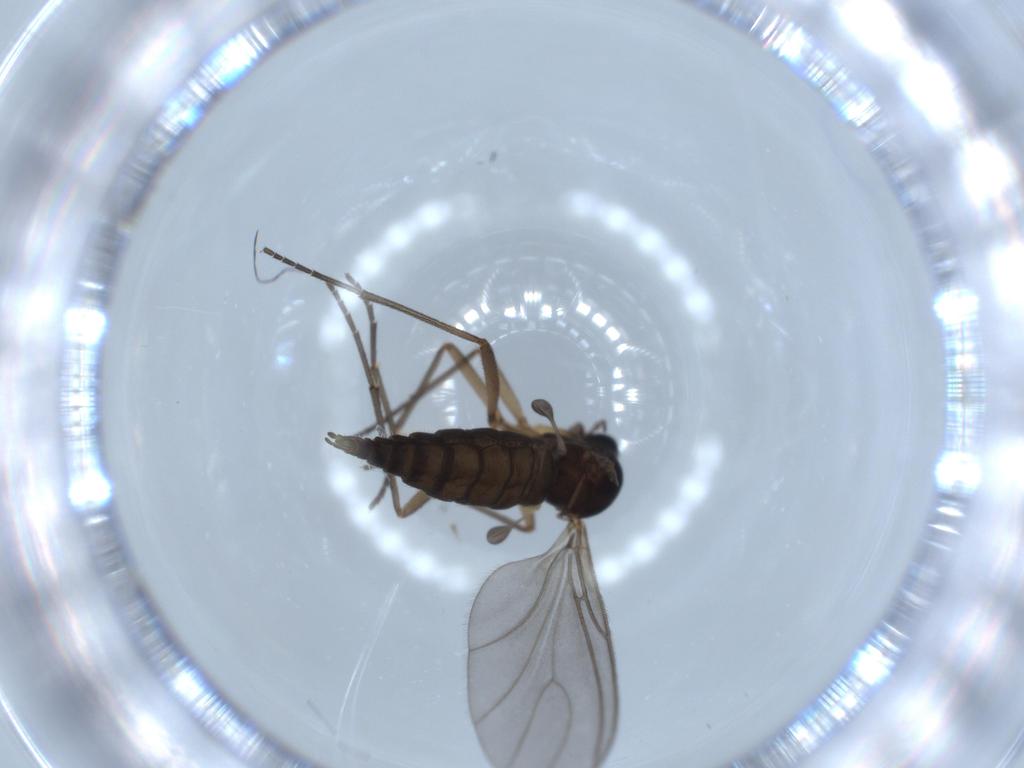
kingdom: Animalia
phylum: Arthropoda
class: Insecta
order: Diptera
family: Sciaridae
